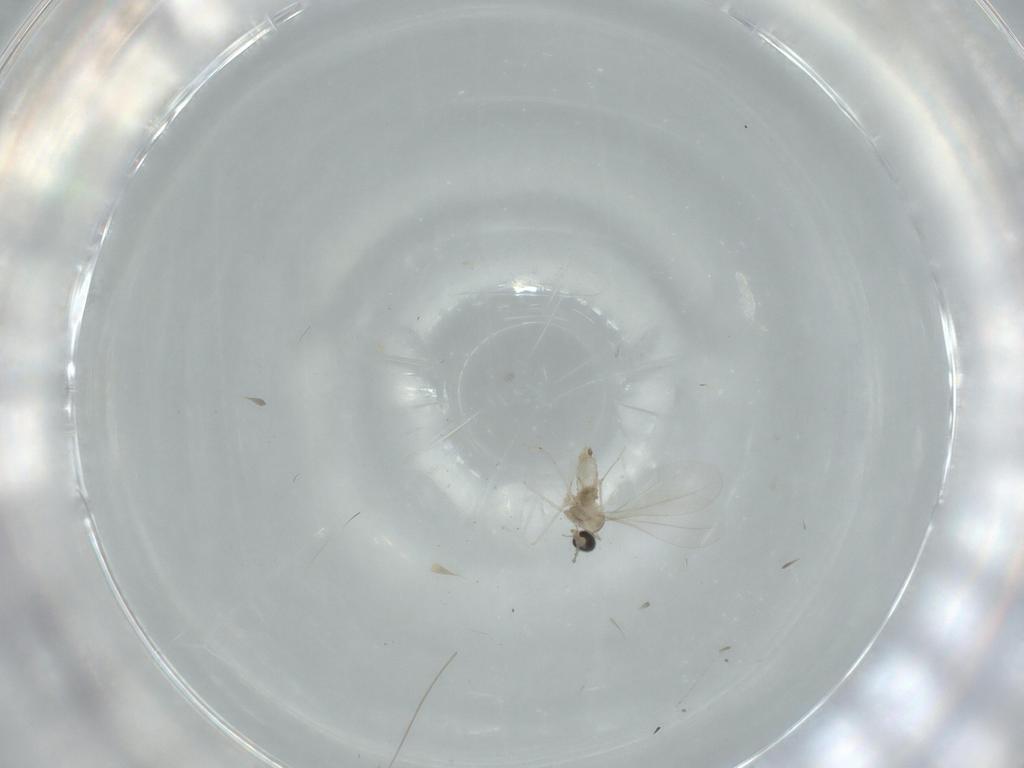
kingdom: Animalia
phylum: Arthropoda
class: Insecta
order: Diptera
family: Cecidomyiidae
